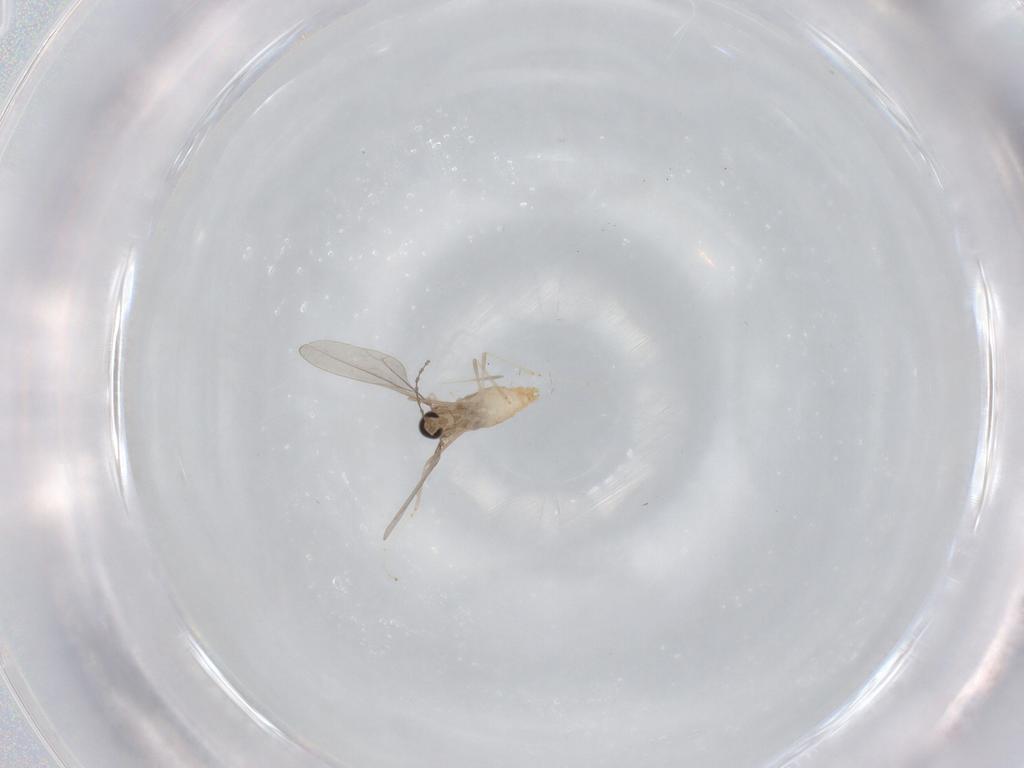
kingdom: Animalia
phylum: Arthropoda
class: Insecta
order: Diptera
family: Cecidomyiidae
